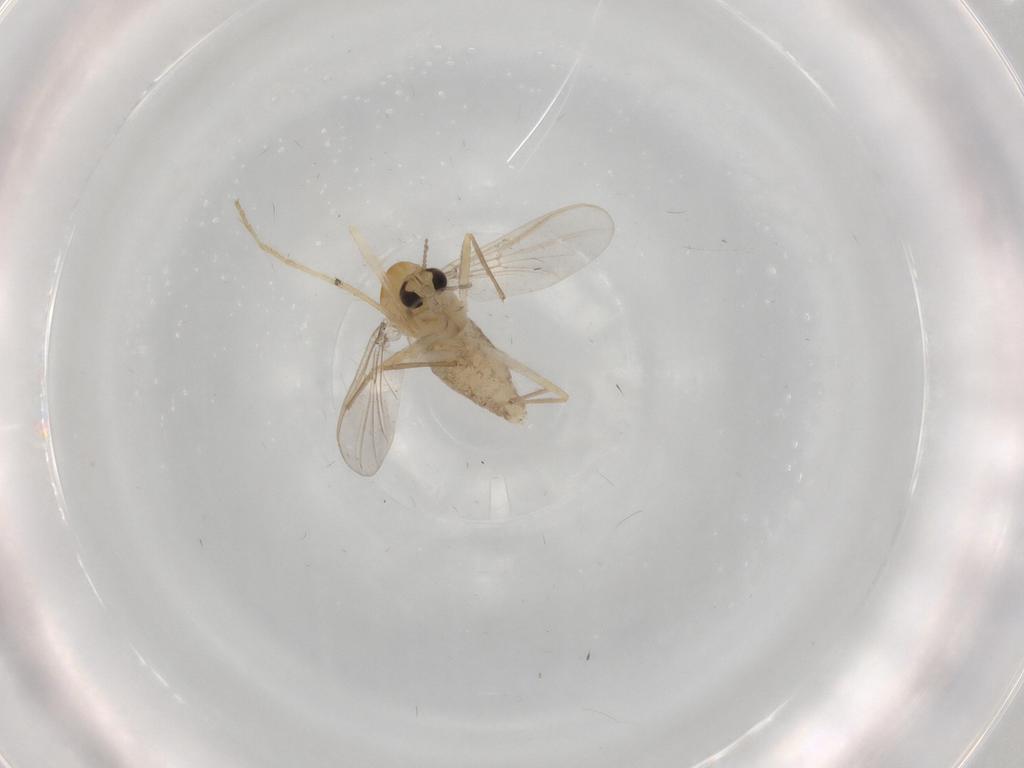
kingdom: Animalia
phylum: Arthropoda
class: Insecta
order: Diptera
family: Chironomidae
